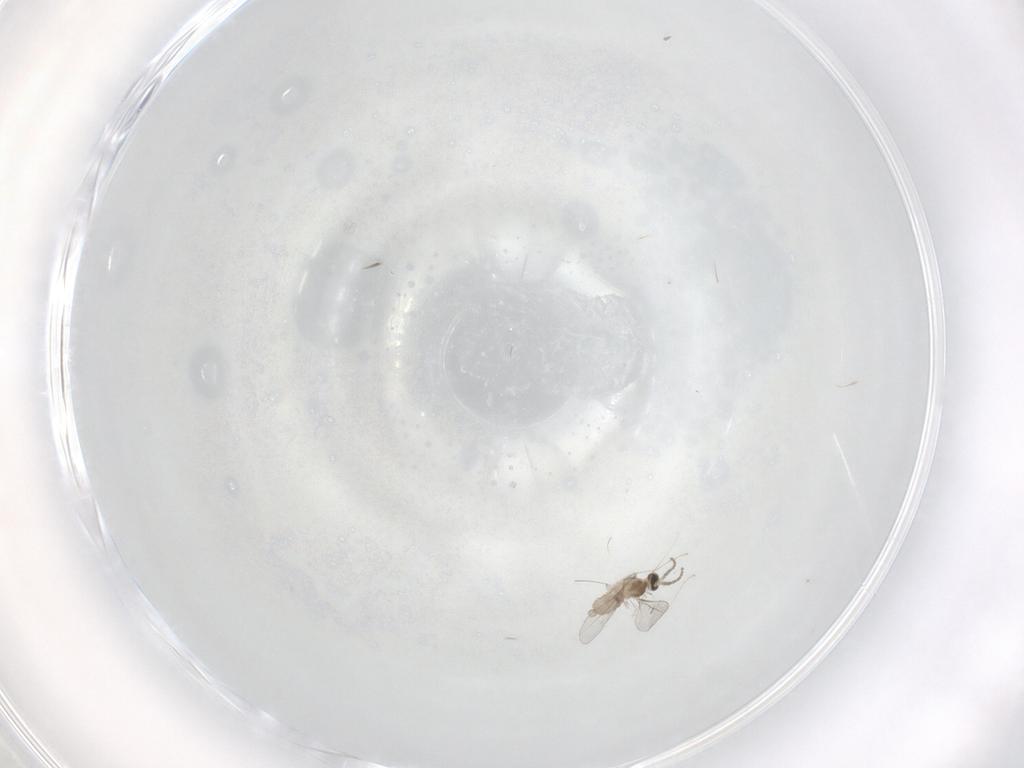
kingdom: Animalia
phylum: Arthropoda
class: Insecta
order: Diptera
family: Cecidomyiidae
